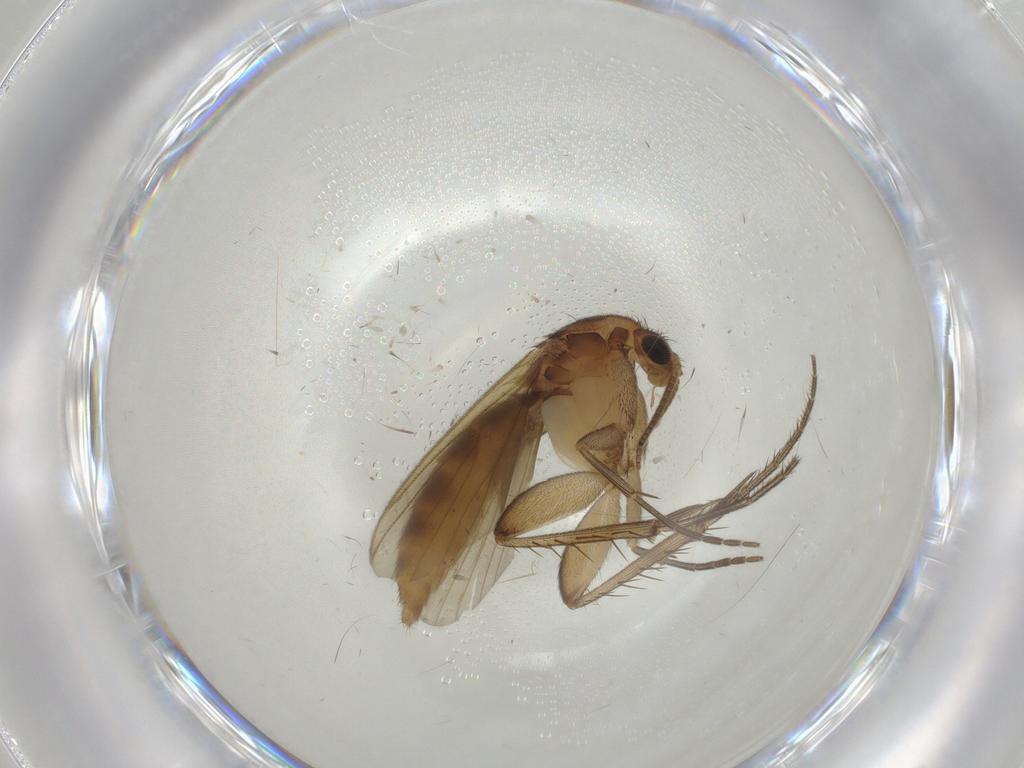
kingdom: Animalia
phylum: Arthropoda
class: Insecta
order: Diptera
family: Mycetophilidae
